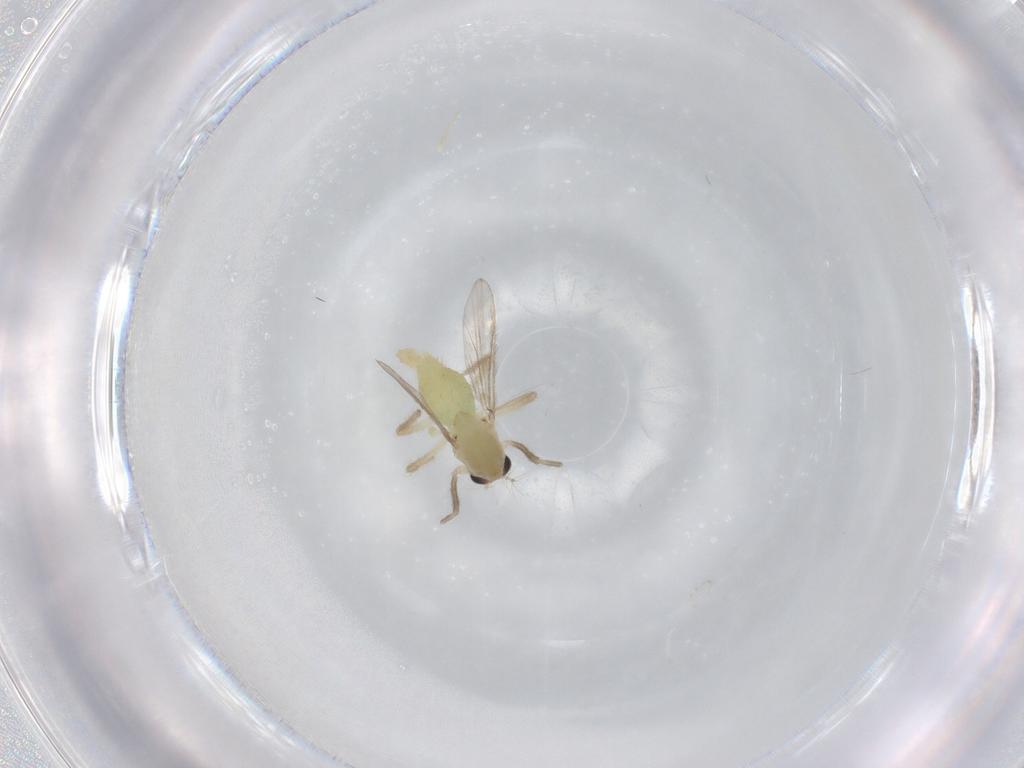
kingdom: Animalia
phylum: Arthropoda
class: Insecta
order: Diptera
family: Chironomidae
